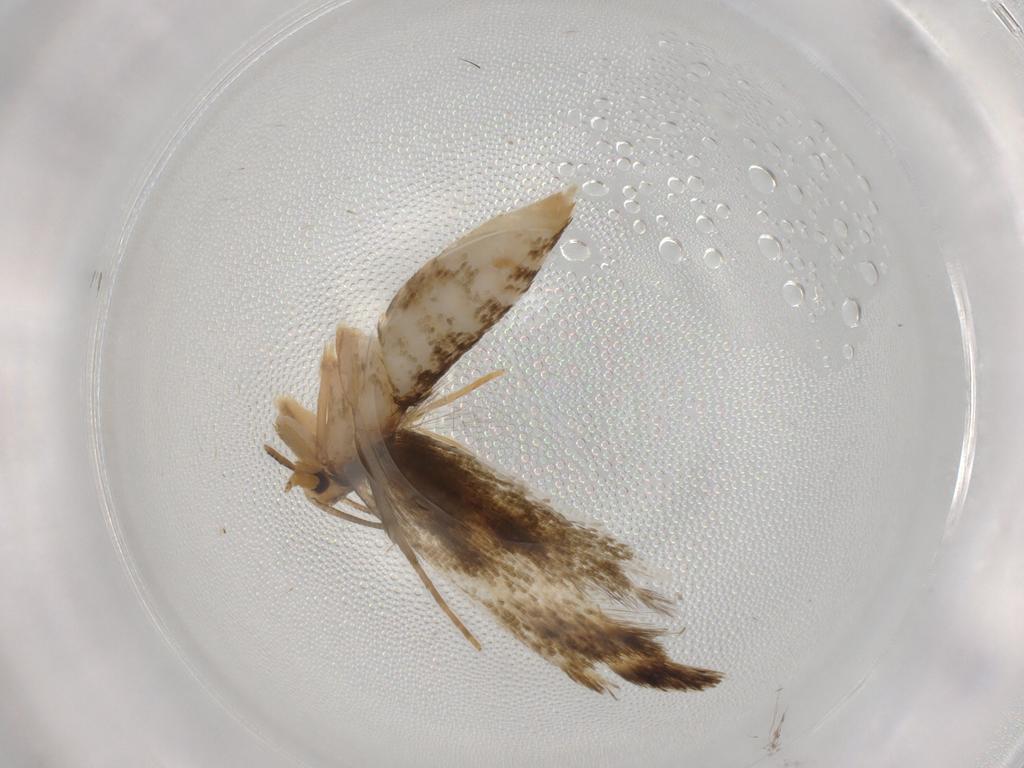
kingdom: Animalia
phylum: Arthropoda
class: Insecta
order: Lepidoptera
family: Tineidae
